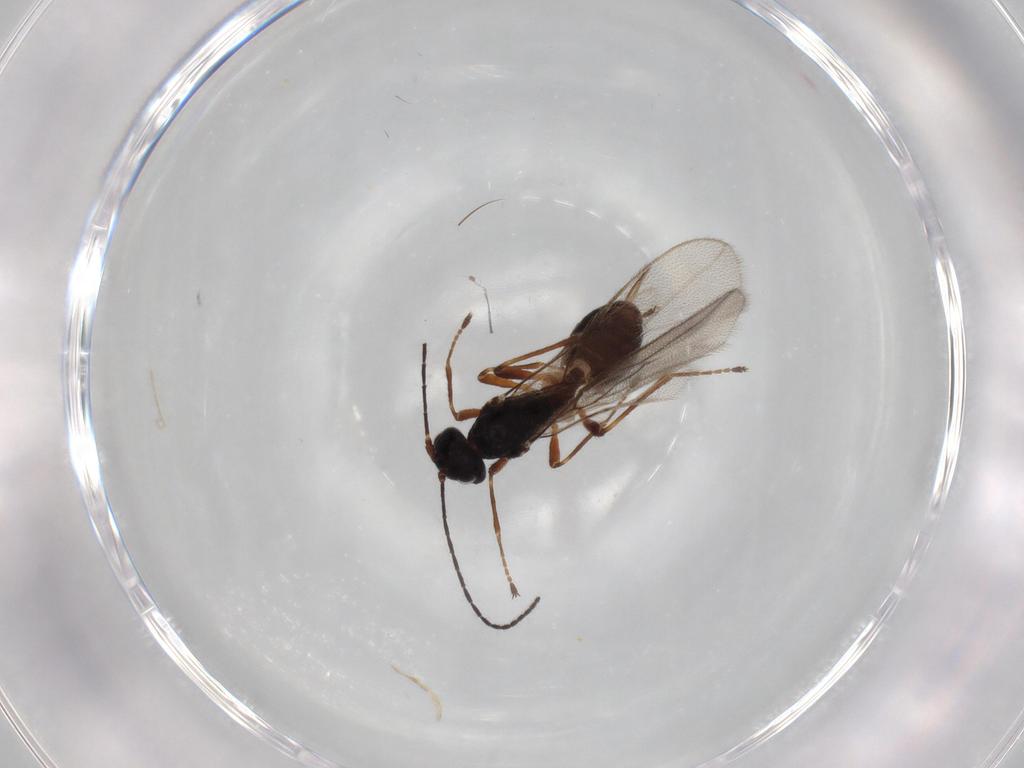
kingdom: Animalia
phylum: Arthropoda
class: Insecta
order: Hymenoptera
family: Braconidae
